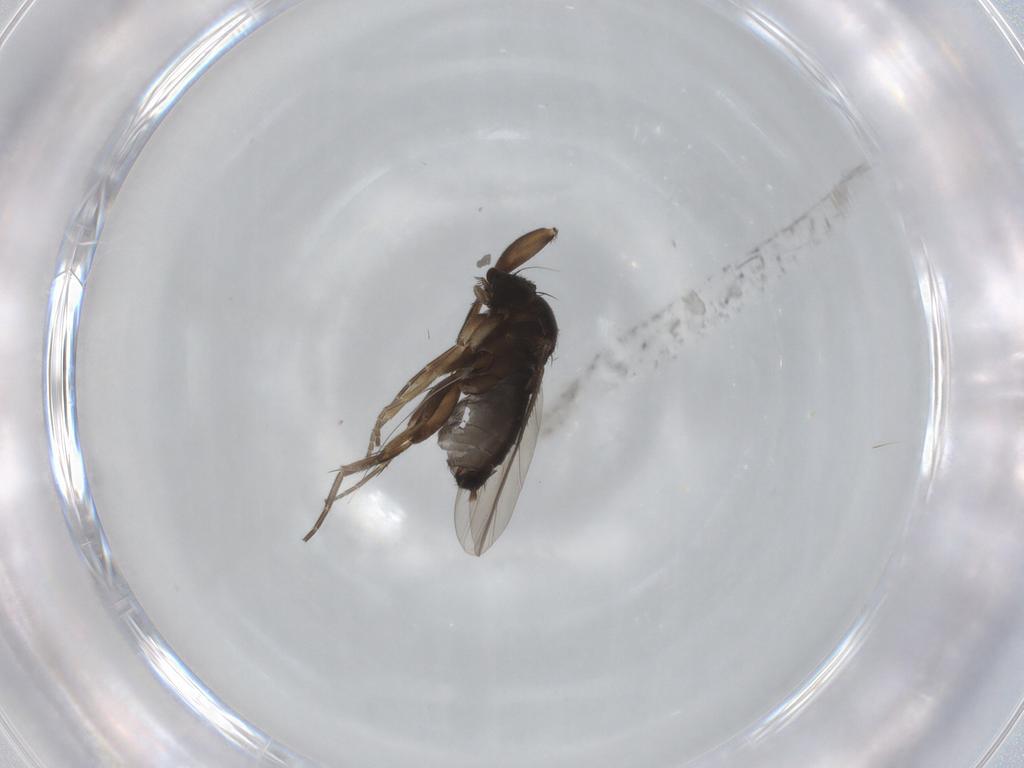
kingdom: Animalia
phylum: Arthropoda
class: Insecta
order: Diptera
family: Phoridae
